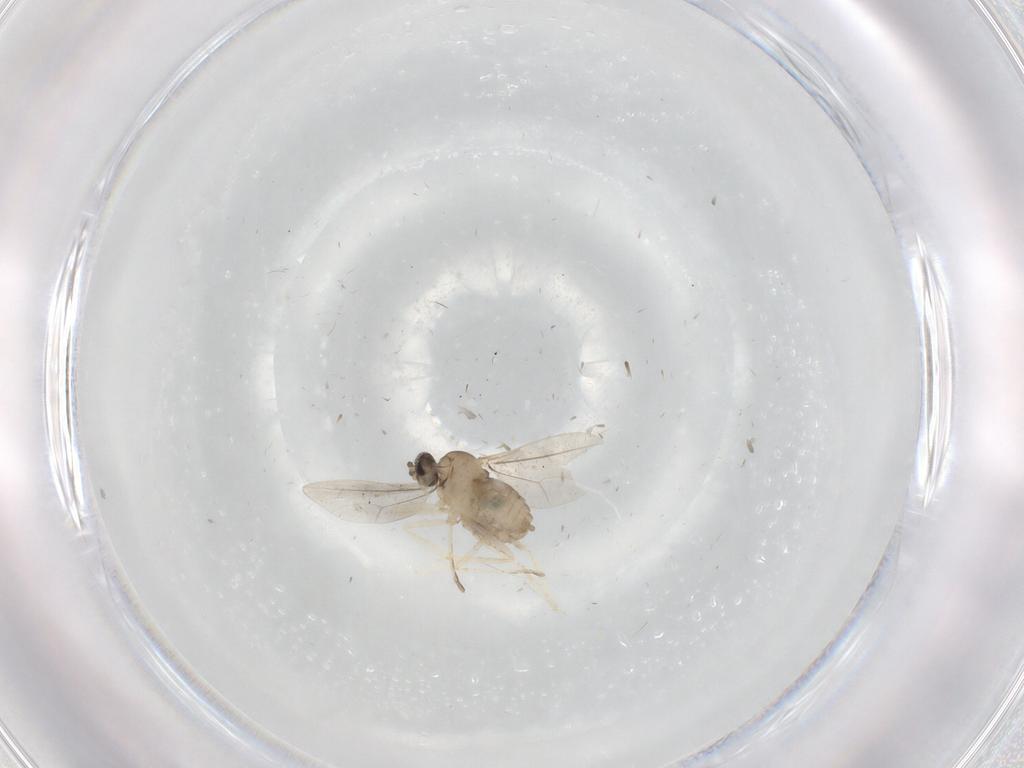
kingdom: Animalia
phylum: Arthropoda
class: Insecta
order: Diptera
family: Cecidomyiidae
